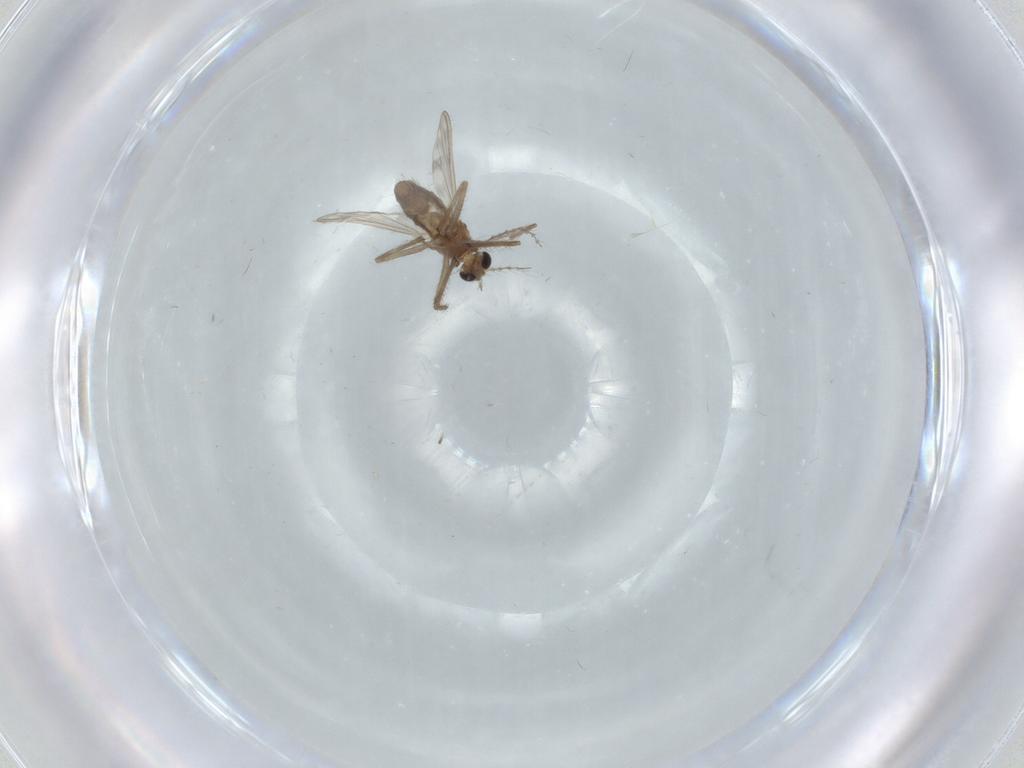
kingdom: Animalia
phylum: Arthropoda
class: Insecta
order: Diptera
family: Chironomidae
